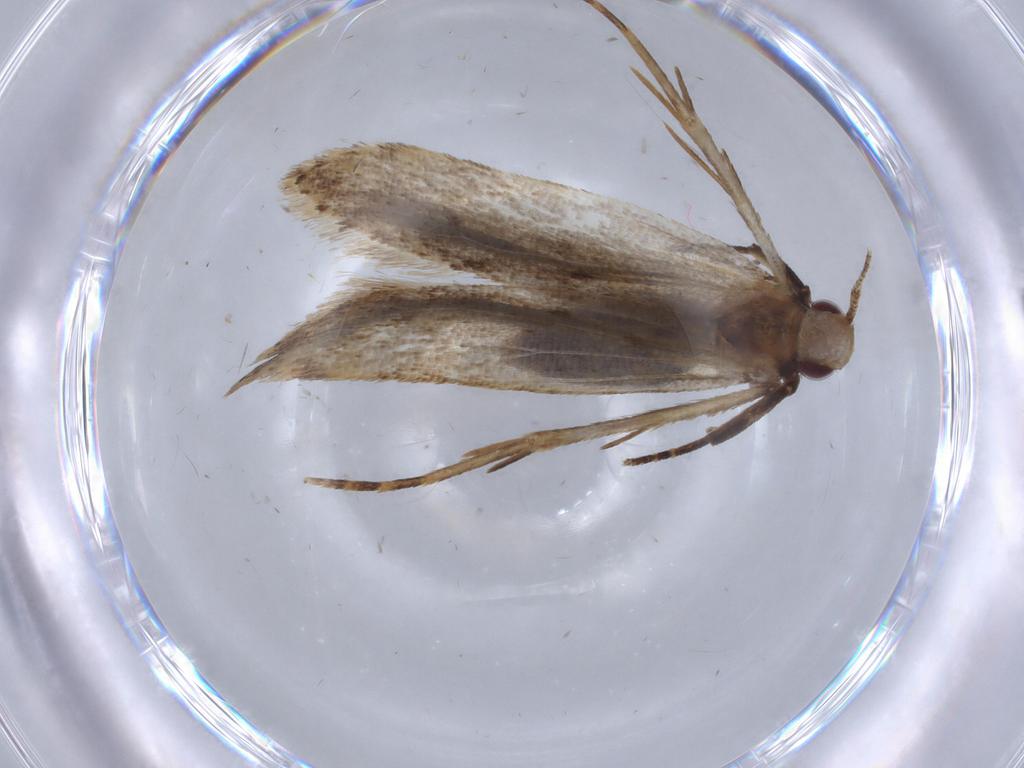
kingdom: Animalia
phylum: Arthropoda
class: Insecta
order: Lepidoptera
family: Gelechiidae
